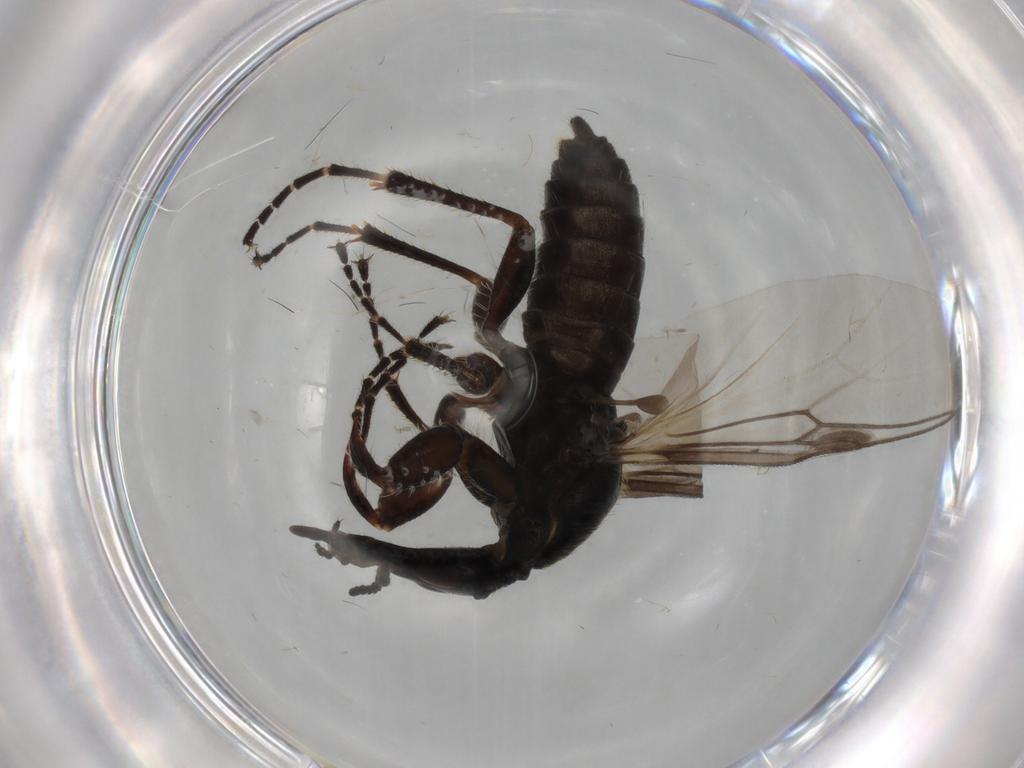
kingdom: Animalia
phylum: Arthropoda
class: Insecta
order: Diptera
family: Bibionidae
